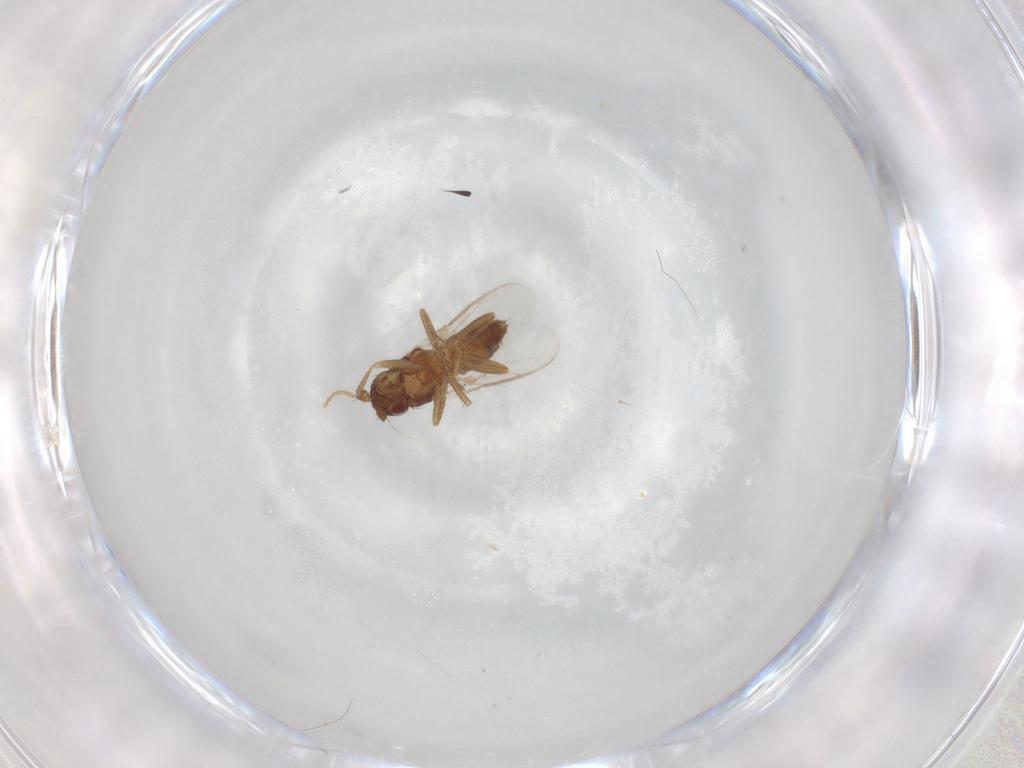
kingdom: Animalia
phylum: Arthropoda
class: Insecta
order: Diptera
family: Sphaeroceridae
